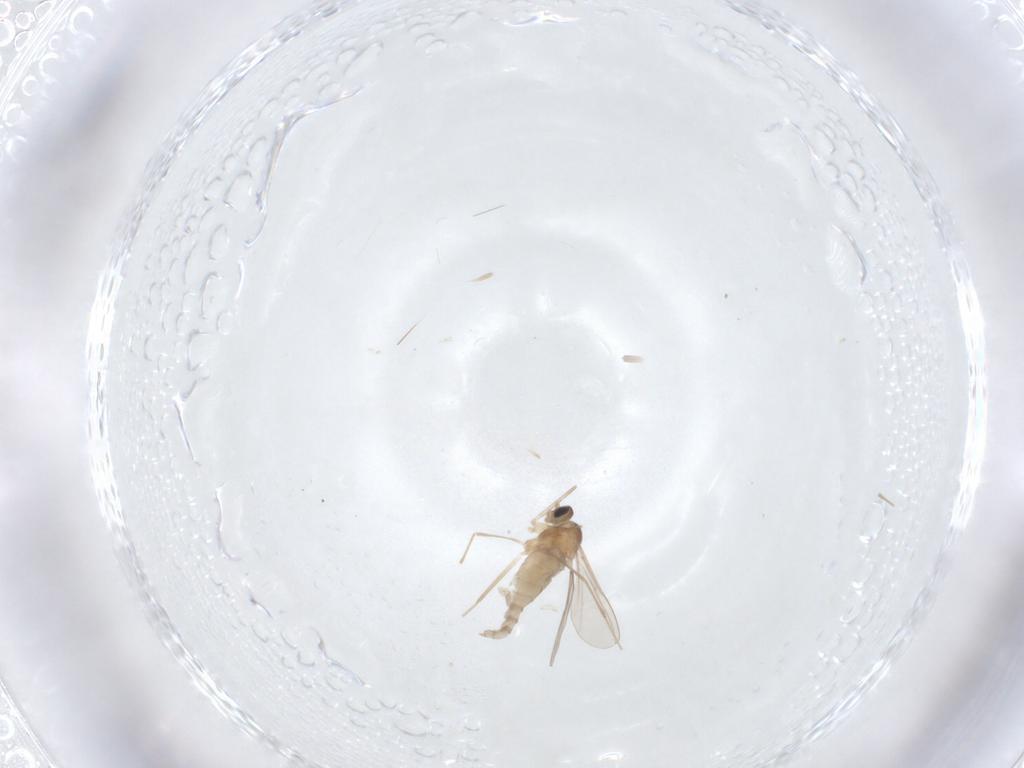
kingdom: Animalia
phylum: Arthropoda
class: Insecta
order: Diptera
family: Cecidomyiidae
